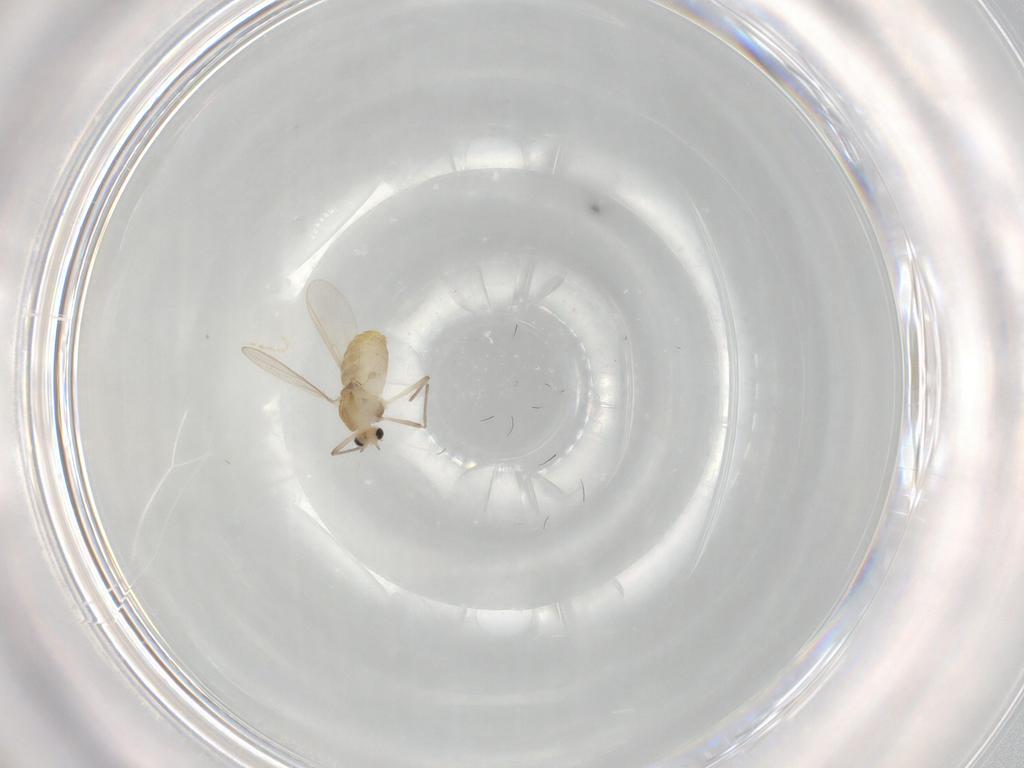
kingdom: Animalia
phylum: Arthropoda
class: Insecta
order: Diptera
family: Chironomidae
